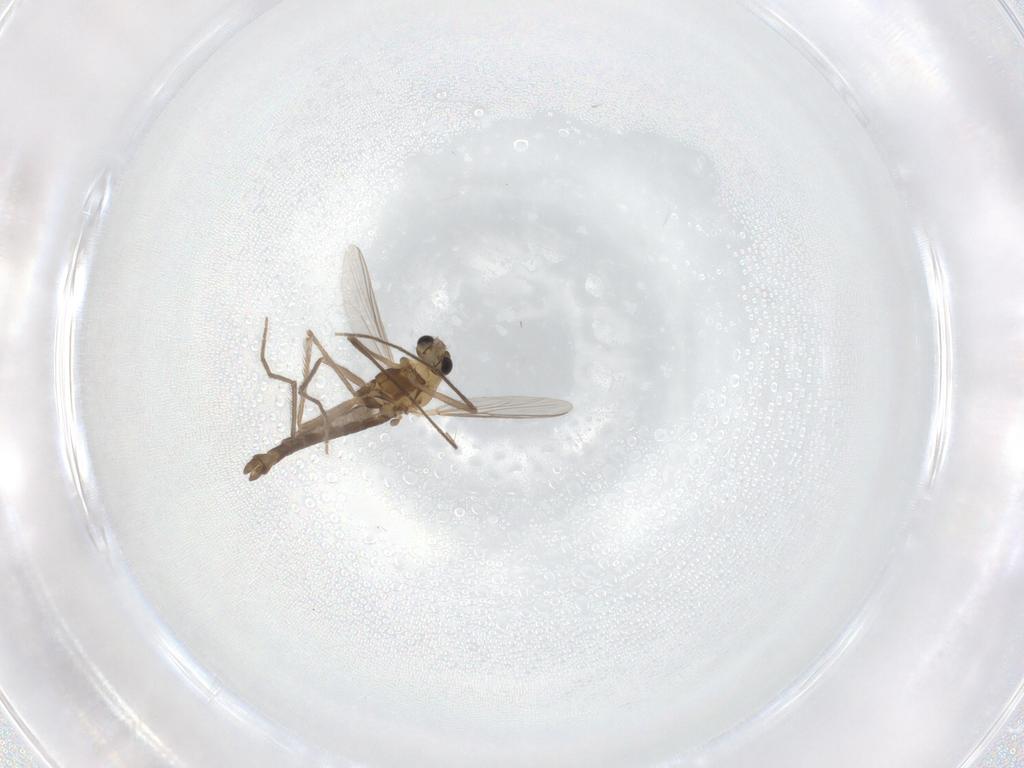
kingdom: Animalia
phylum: Arthropoda
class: Insecta
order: Diptera
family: Chironomidae
